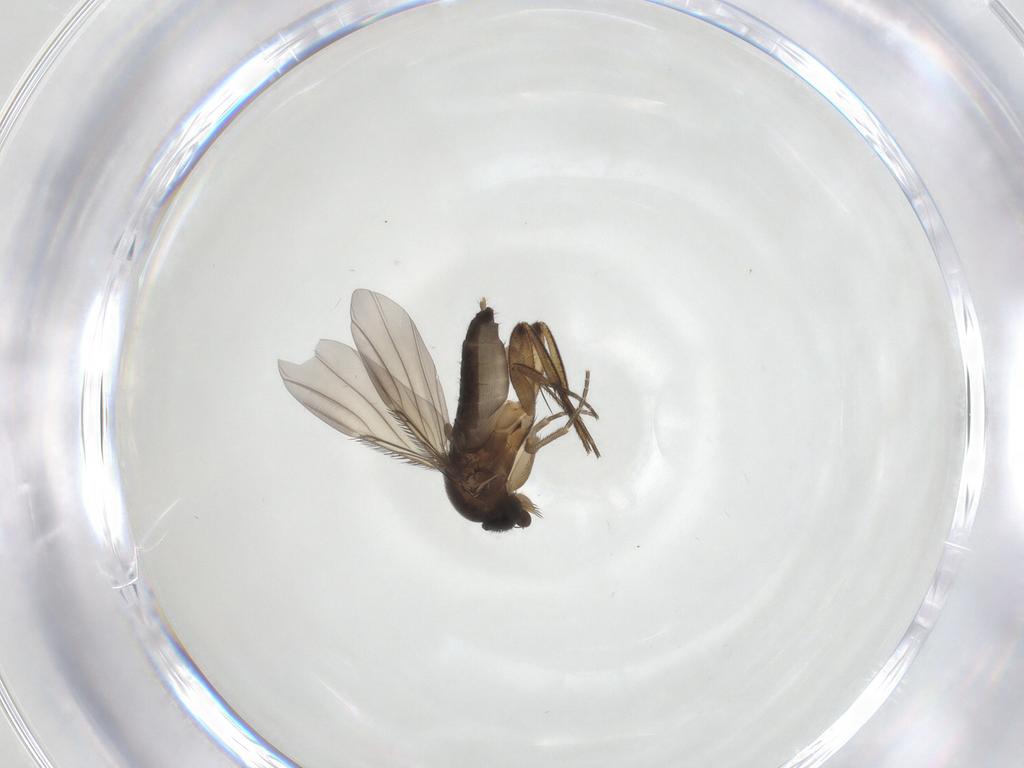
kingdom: Animalia
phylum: Arthropoda
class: Insecta
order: Diptera
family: Phoridae
